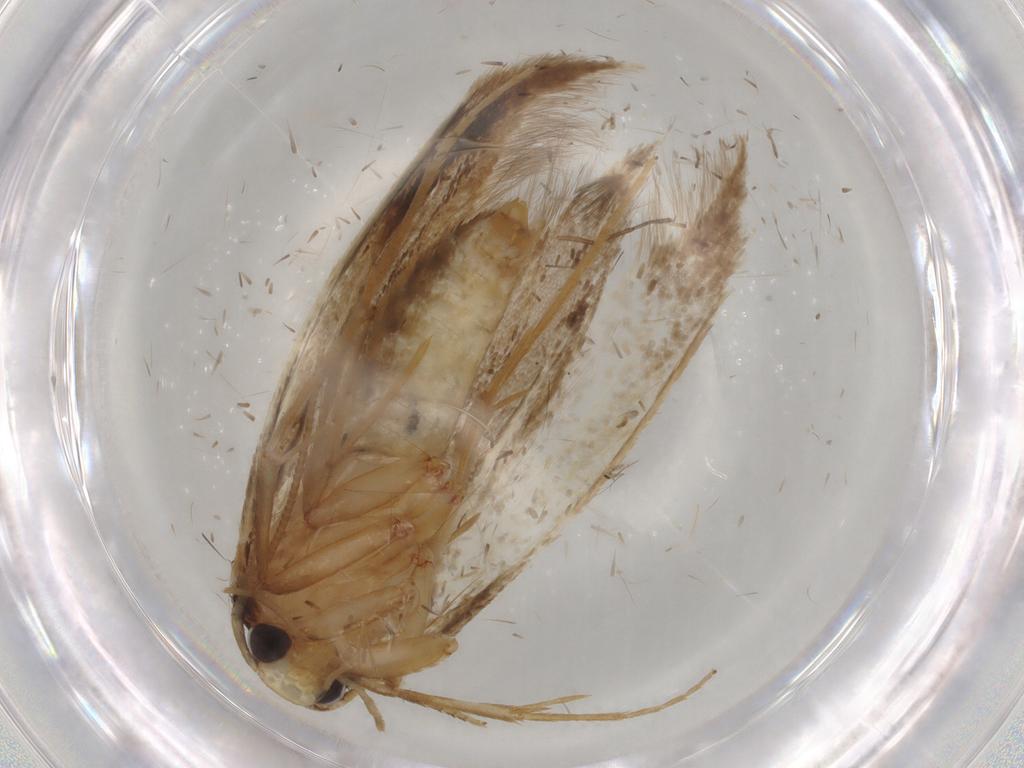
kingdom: Animalia
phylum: Arthropoda
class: Insecta
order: Lepidoptera
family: Tineidae
